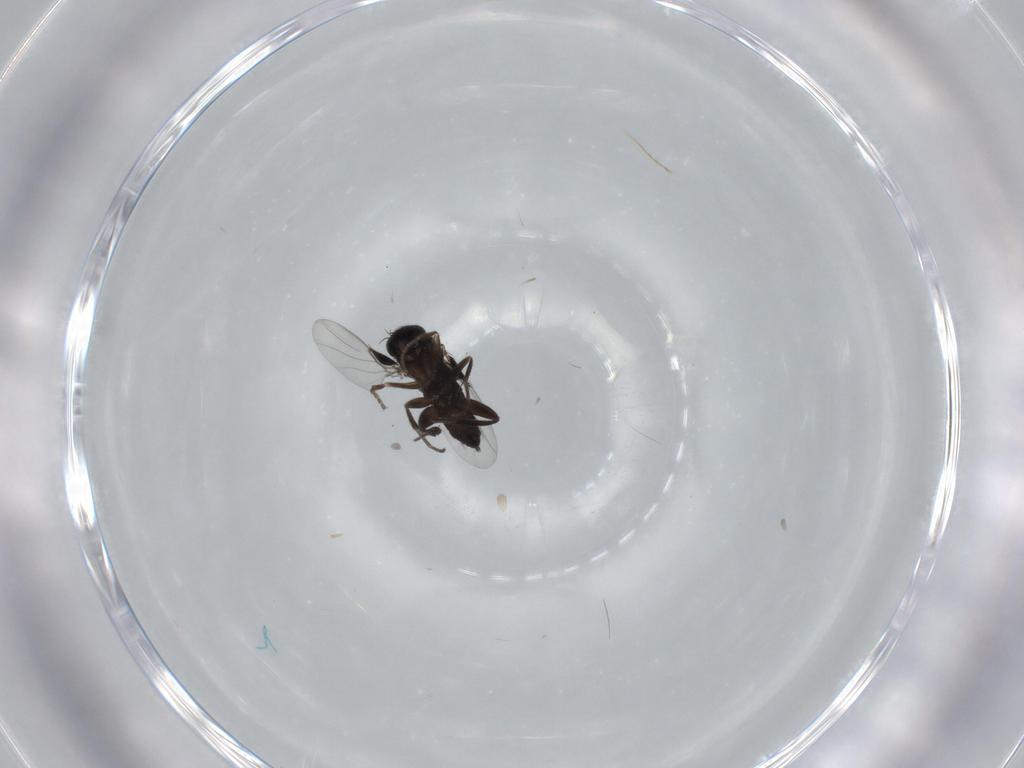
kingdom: Animalia
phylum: Arthropoda
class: Insecta
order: Diptera
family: Phoridae
